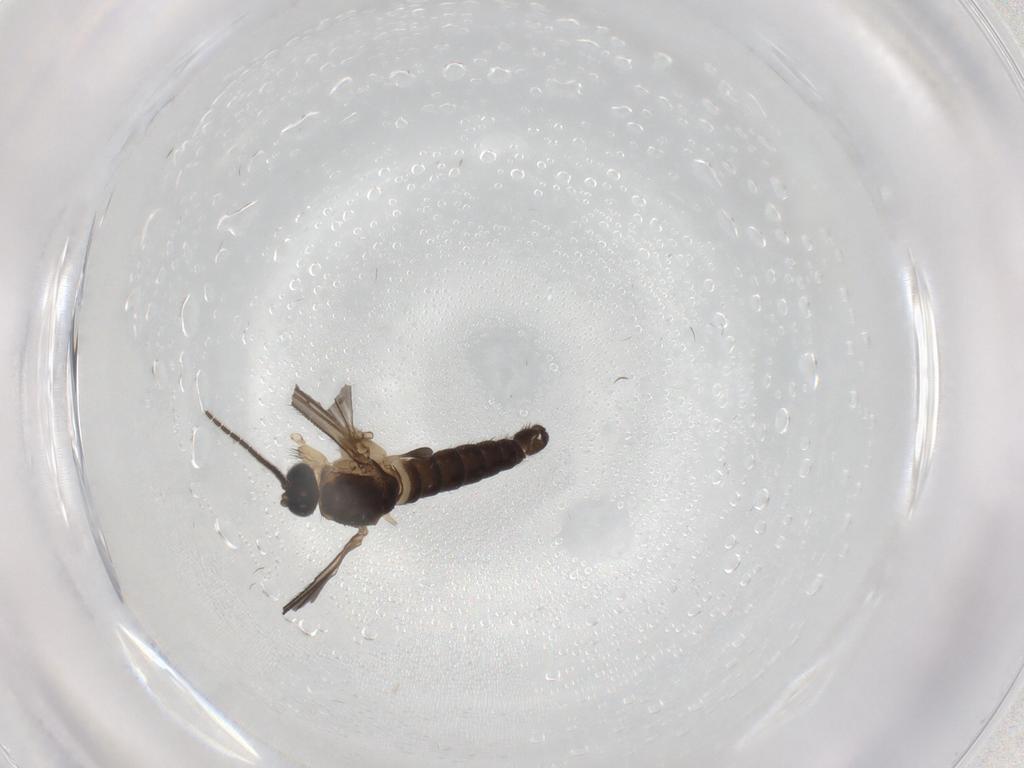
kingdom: Animalia
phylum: Arthropoda
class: Insecta
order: Diptera
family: Sciaridae
